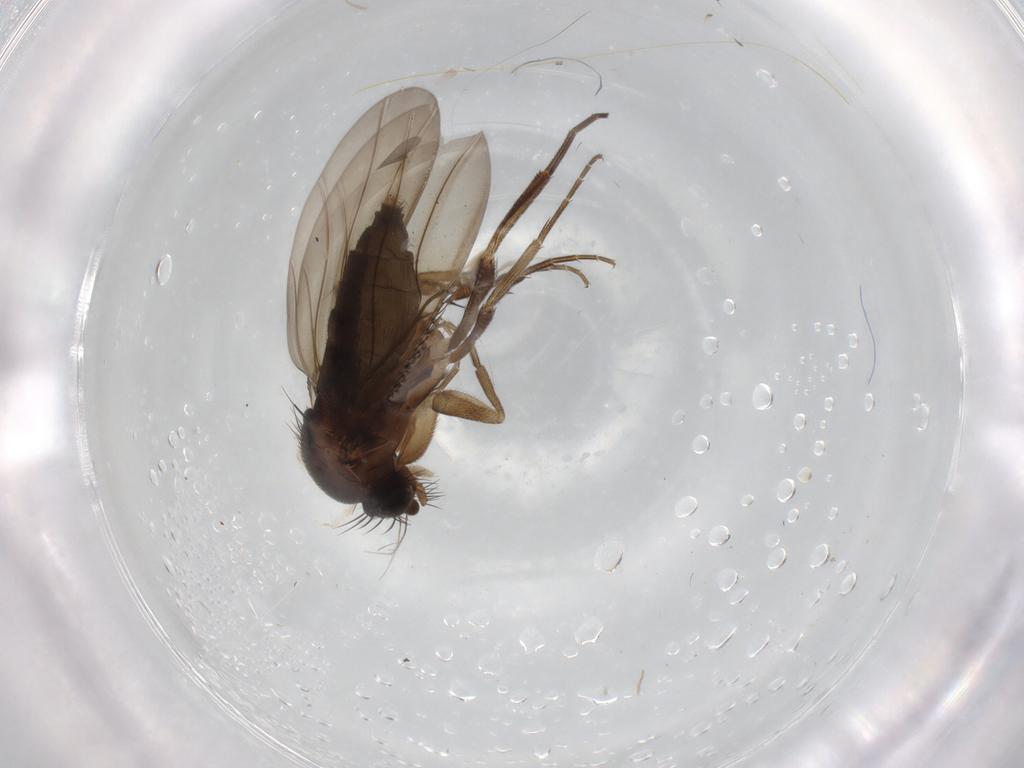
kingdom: Animalia
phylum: Arthropoda
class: Insecta
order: Diptera
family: Phoridae
